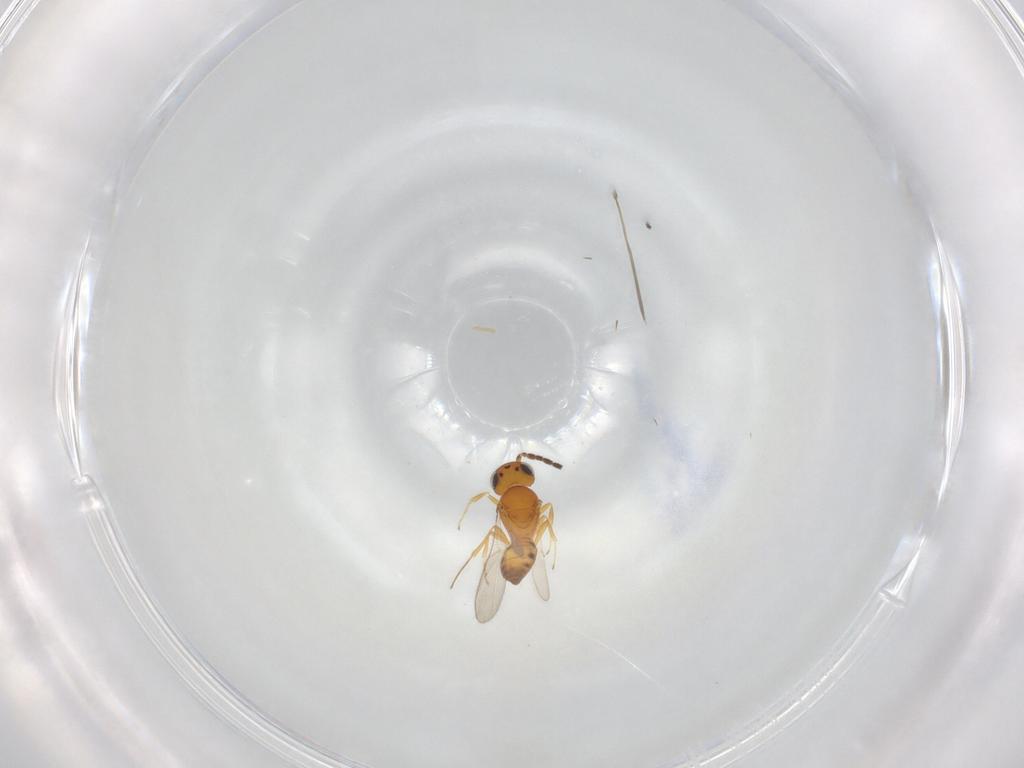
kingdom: Animalia
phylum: Arthropoda
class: Insecta
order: Hymenoptera
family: Scelionidae
